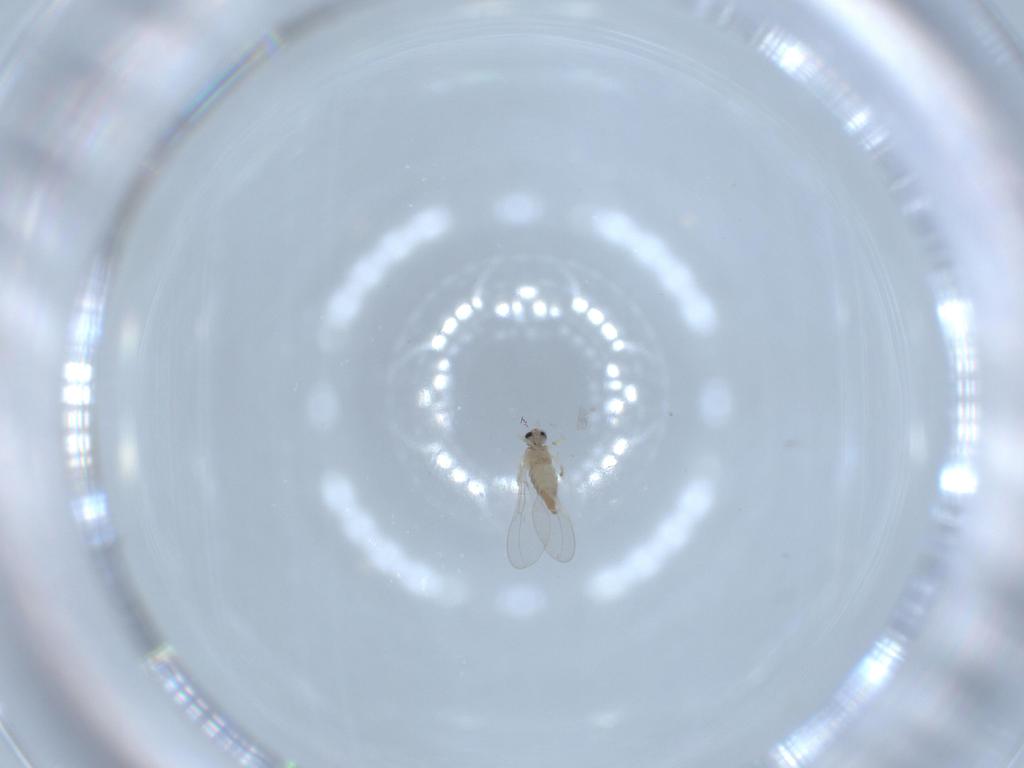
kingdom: Animalia
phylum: Arthropoda
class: Insecta
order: Diptera
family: Cecidomyiidae
